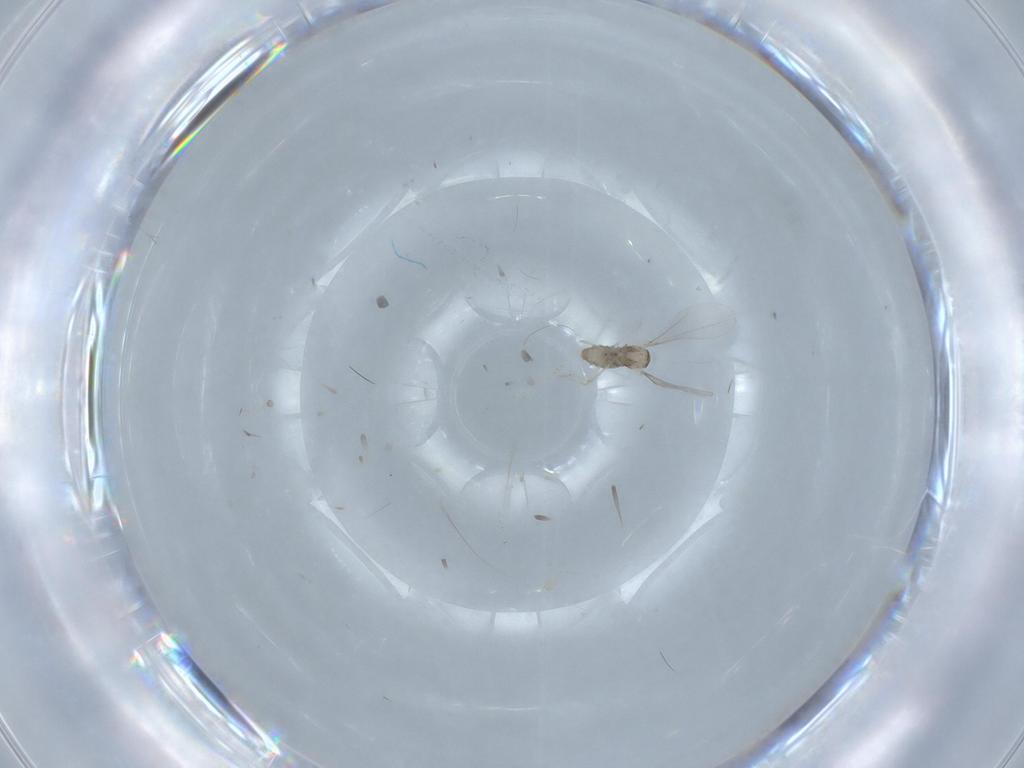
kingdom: Animalia
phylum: Arthropoda
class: Insecta
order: Diptera
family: Cecidomyiidae
